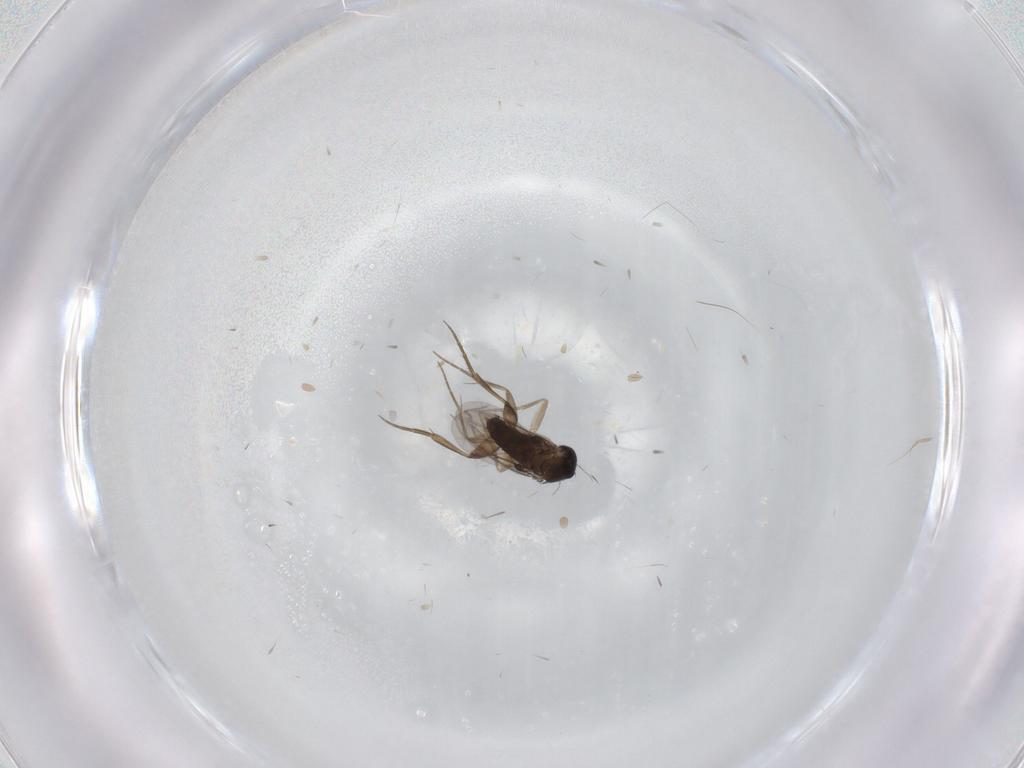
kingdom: Animalia
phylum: Arthropoda
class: Insecta
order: Diptera
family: Phoridae
